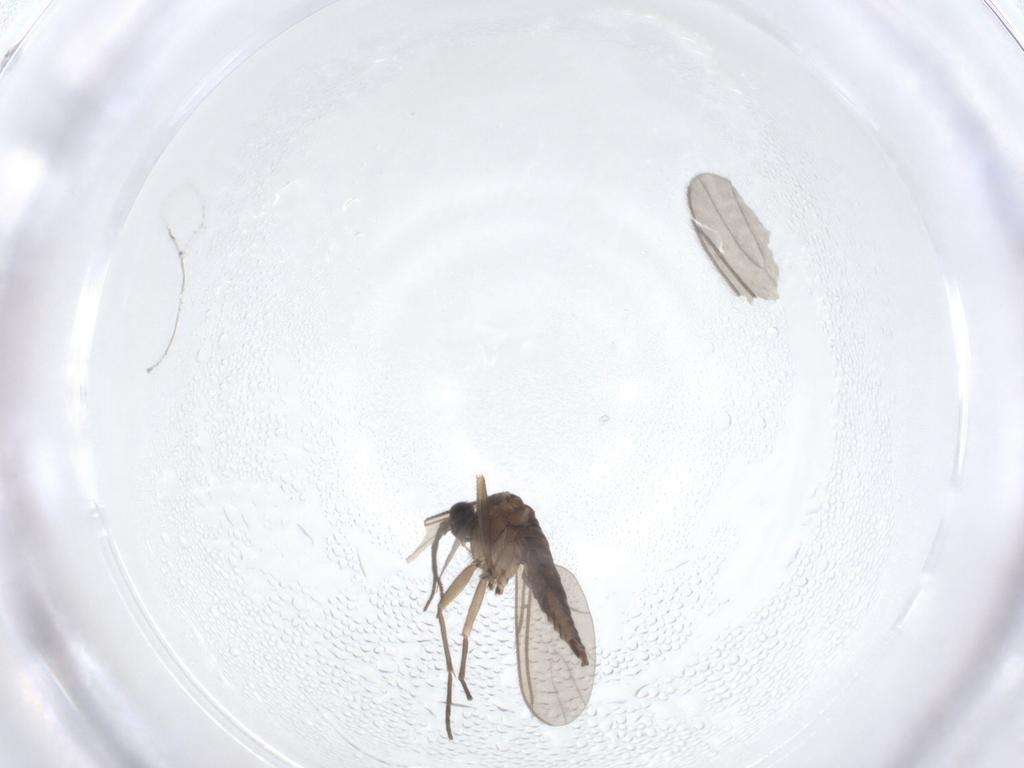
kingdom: Animalia
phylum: Arthropoda
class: Insecta
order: Diptera
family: Sciaridae
